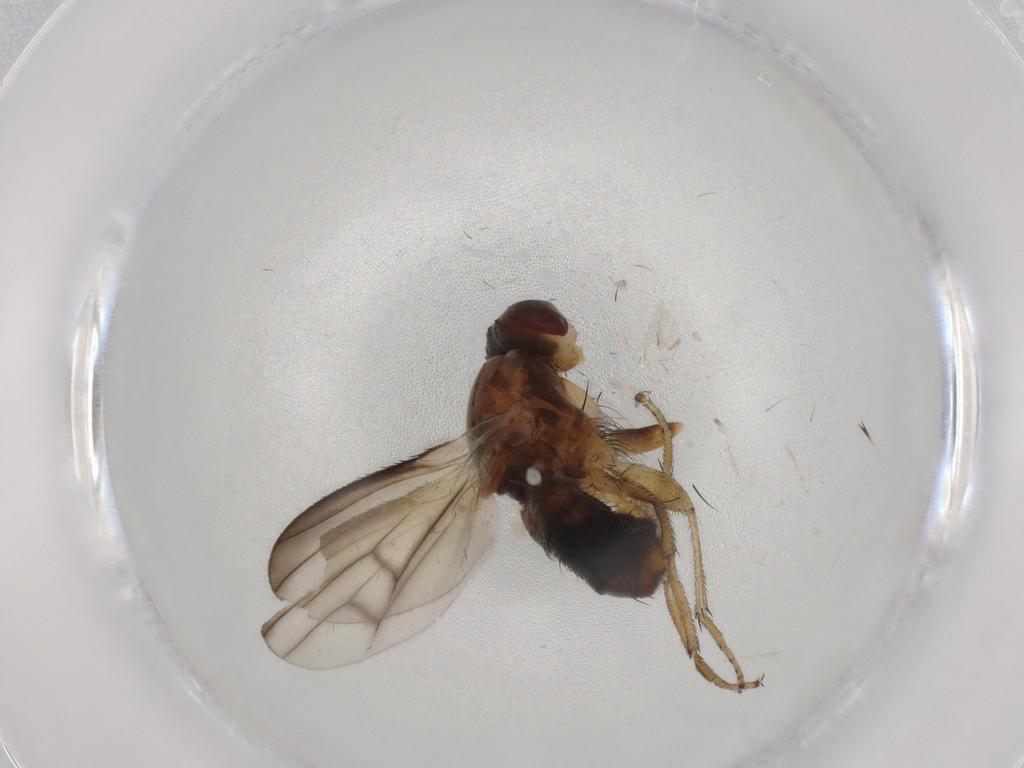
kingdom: Animalia
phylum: Arthropoda
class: Insecta
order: Diptera
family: Heleomyzidae
